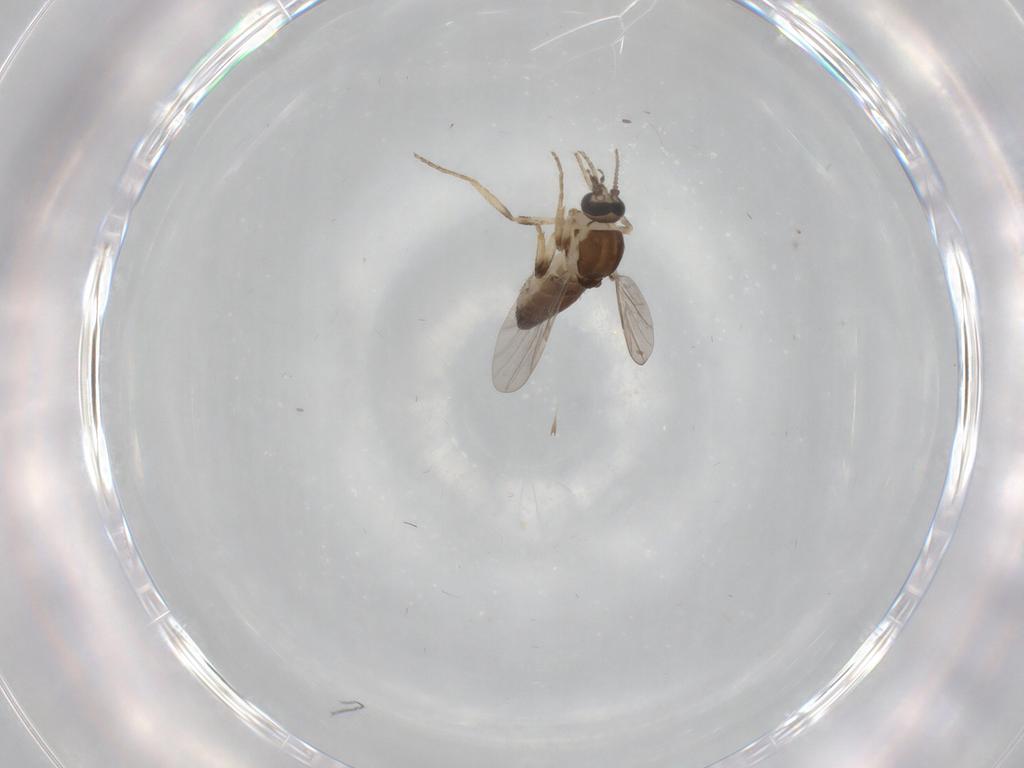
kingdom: Animalia
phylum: Arthropoda
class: Insecta
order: Diptera
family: Ceratopogonidae
